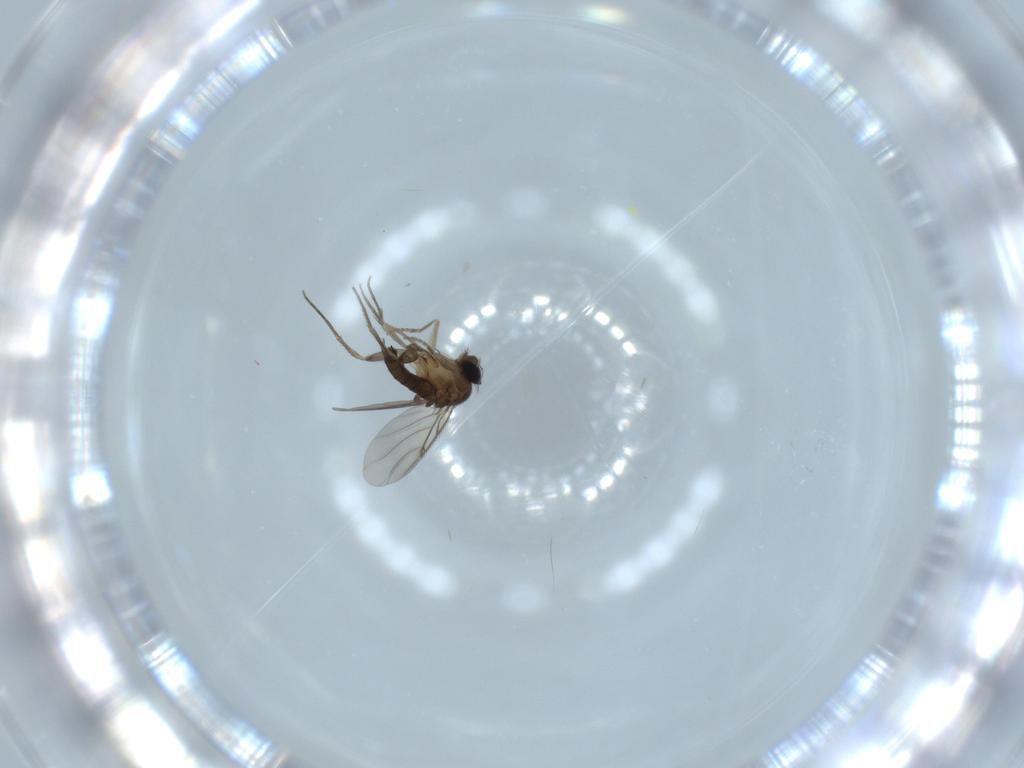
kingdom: Animalia
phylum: Arthropoda
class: Insecta
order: Diptera
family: Phoridae
